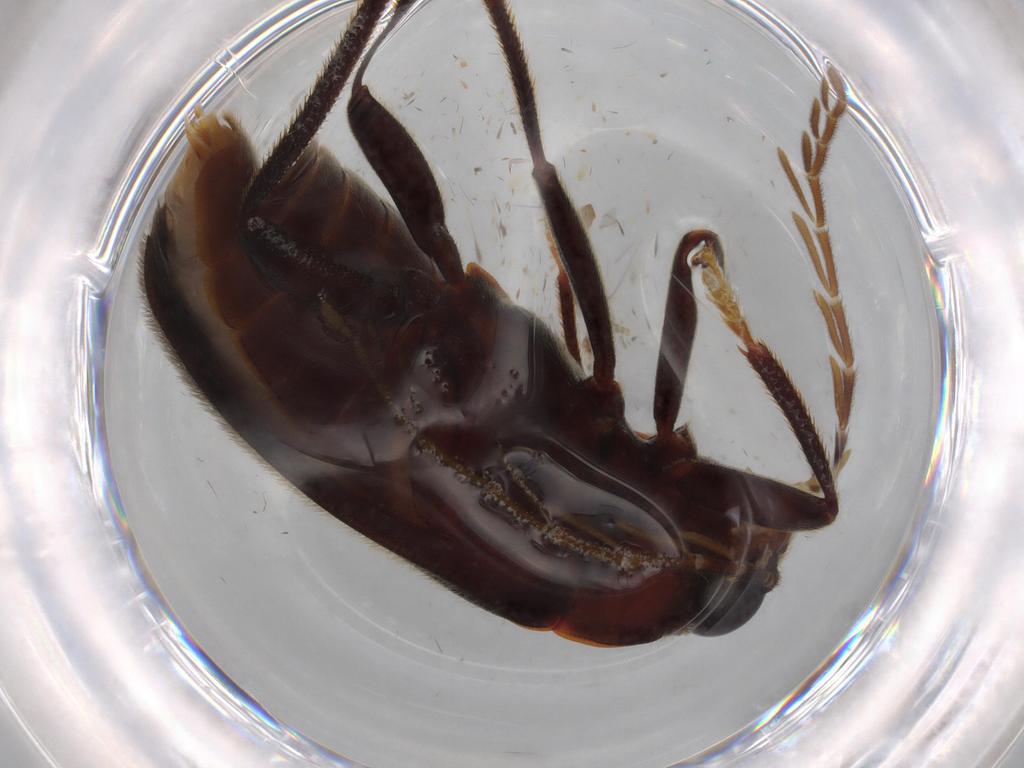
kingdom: Animalia
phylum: Arthropoda
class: Insecta
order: Coleoptera
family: Ptilodactylidae
